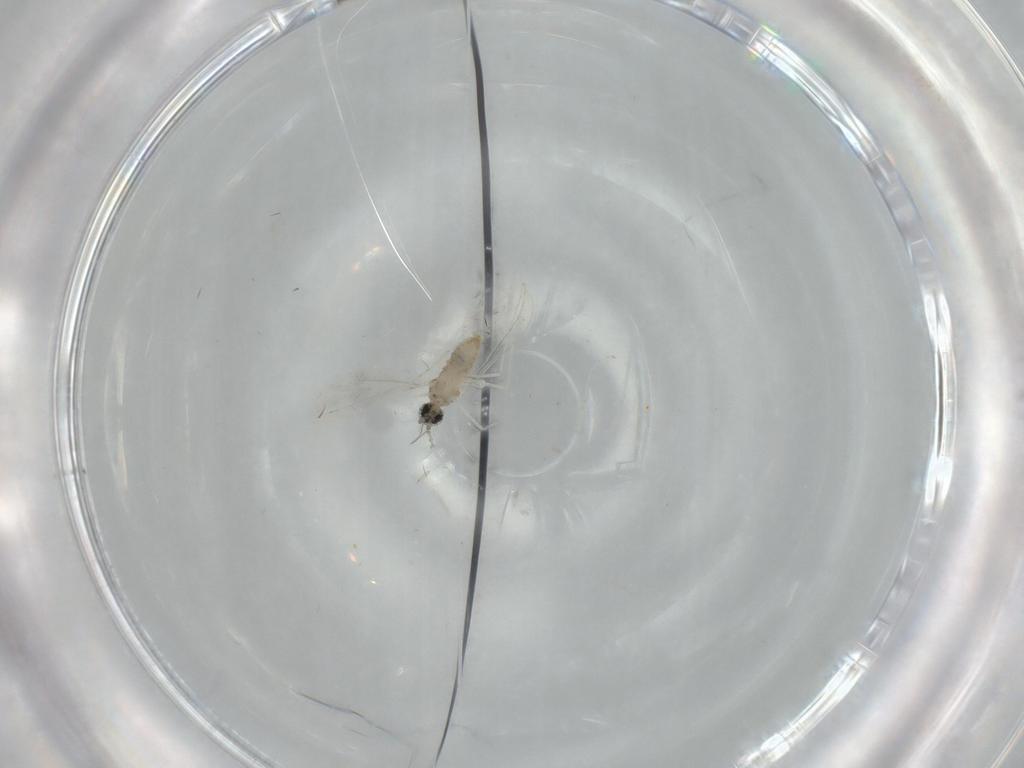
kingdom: Animalia
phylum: Arthropoda
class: Insecta
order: Diptera
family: Cecidomyiidae
